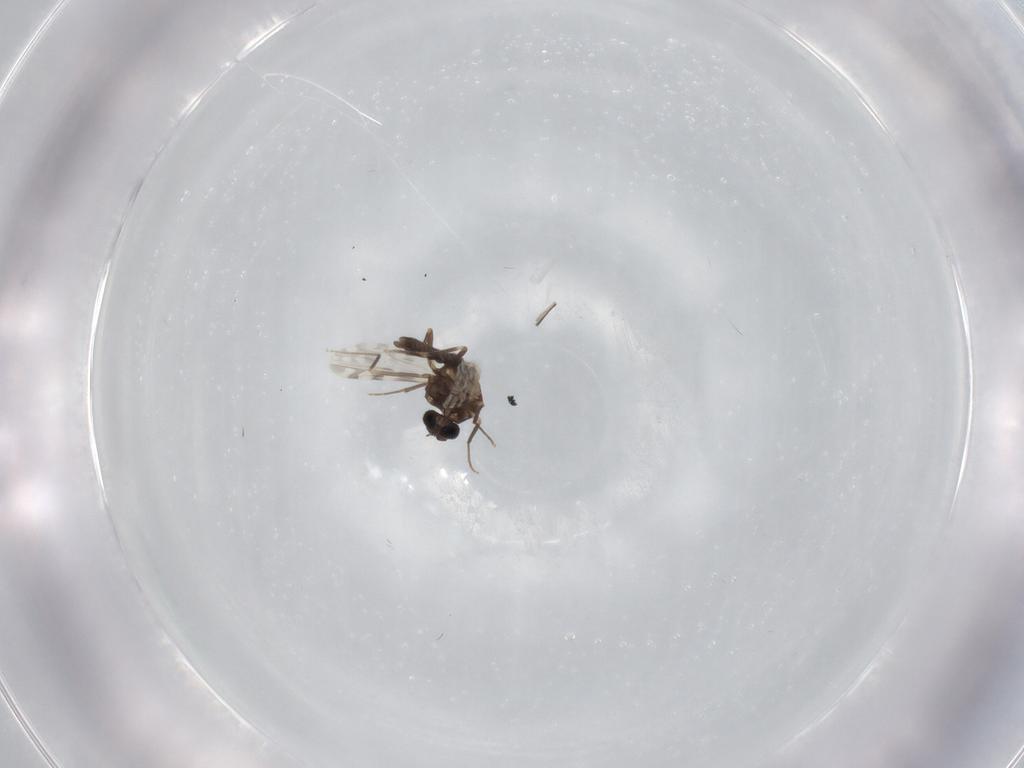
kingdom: Animalia
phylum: Arthropoda
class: Insecta
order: Diptera
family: Ceratopogonidae
